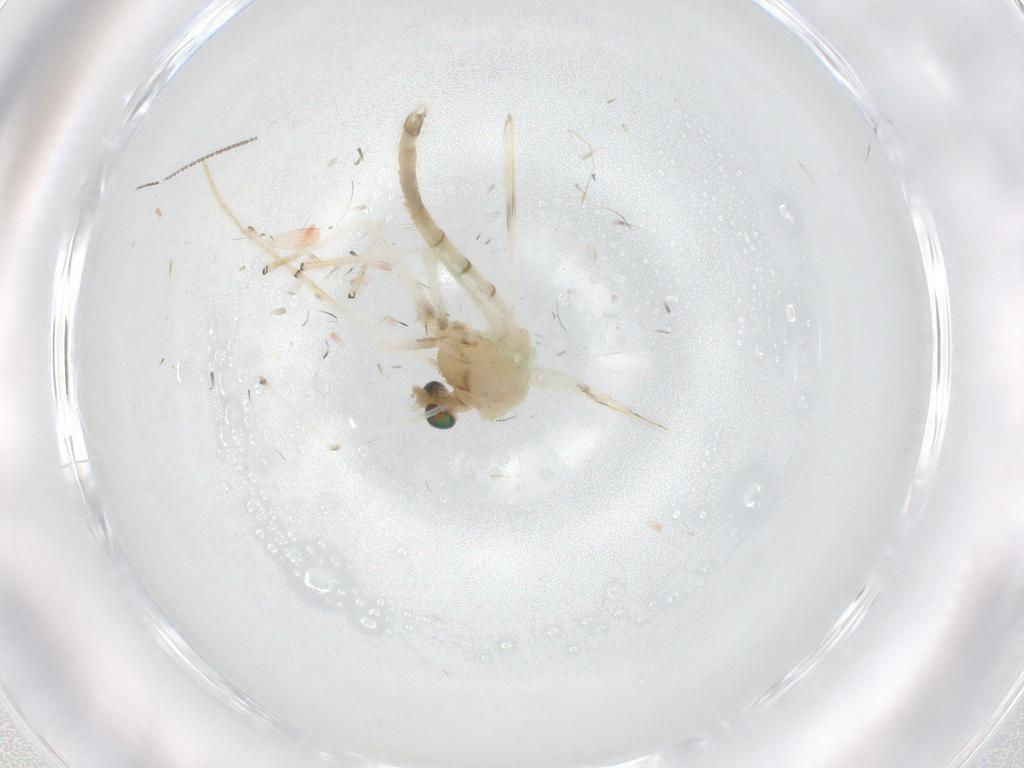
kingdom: Animalia
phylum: Arthropoda
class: Insecta
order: Diptera
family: Chironomidae
